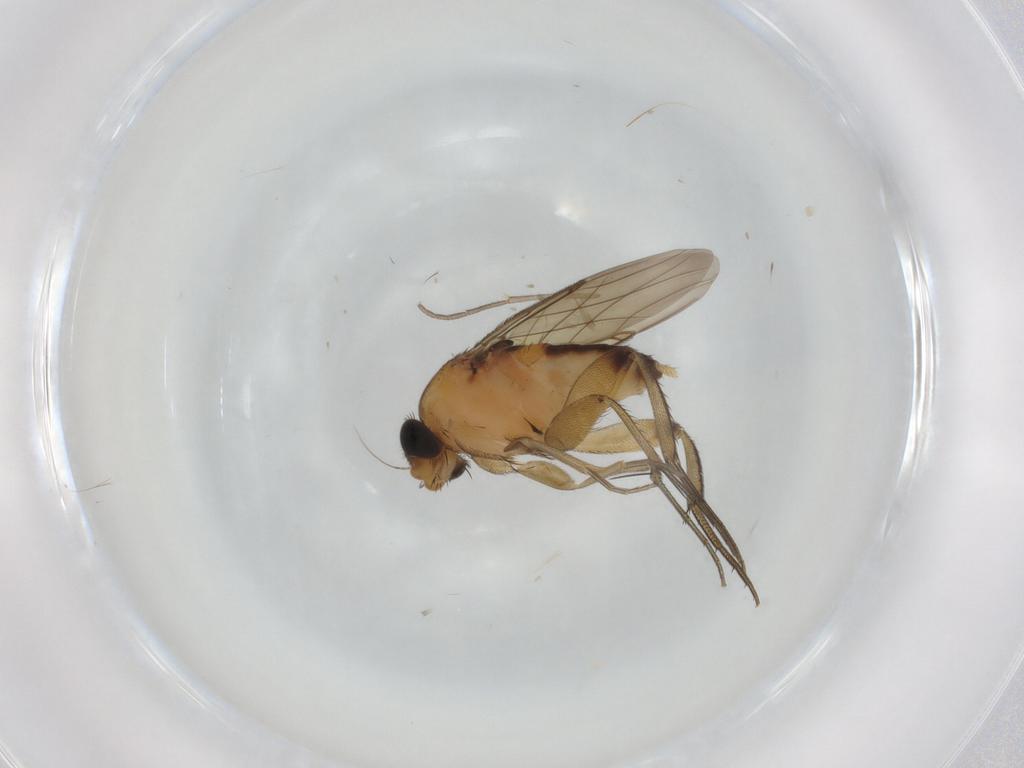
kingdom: Animalia
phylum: Arthropoda
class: Insecta
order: Diptera
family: Phoridae
